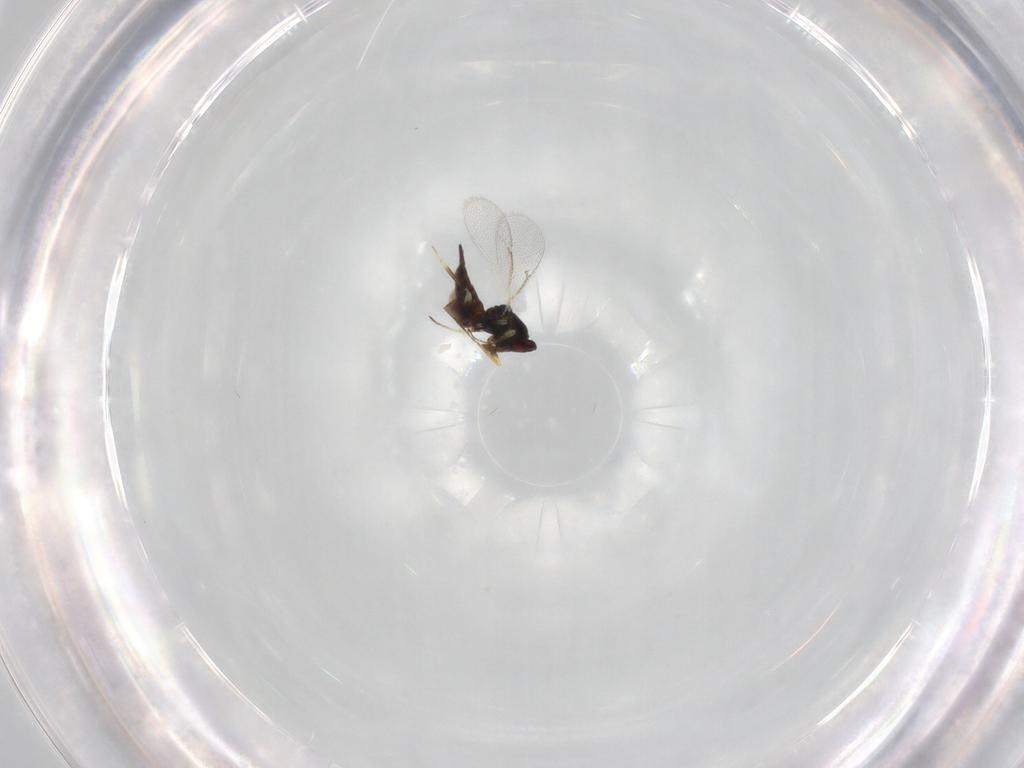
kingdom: Animalia
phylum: Arthropoda
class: Insecta
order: Hymenoptera
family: Eulophidae
